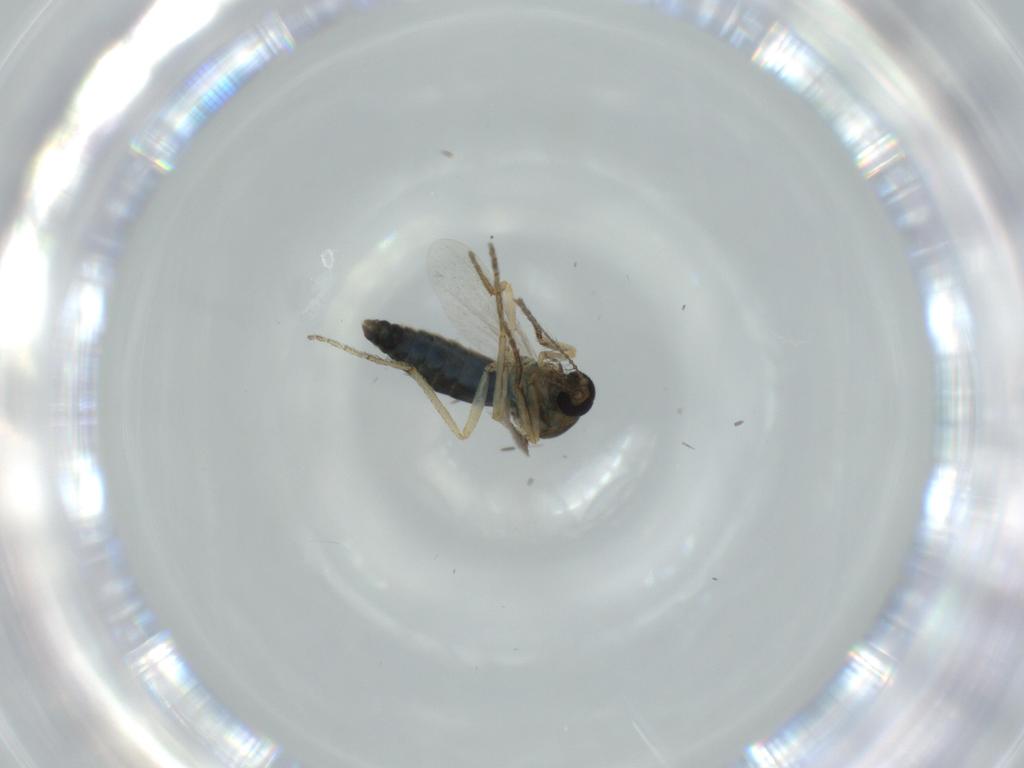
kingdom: Animalia
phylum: Arthropoda
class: Insecta
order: Diptera
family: Ceratopogonidae
